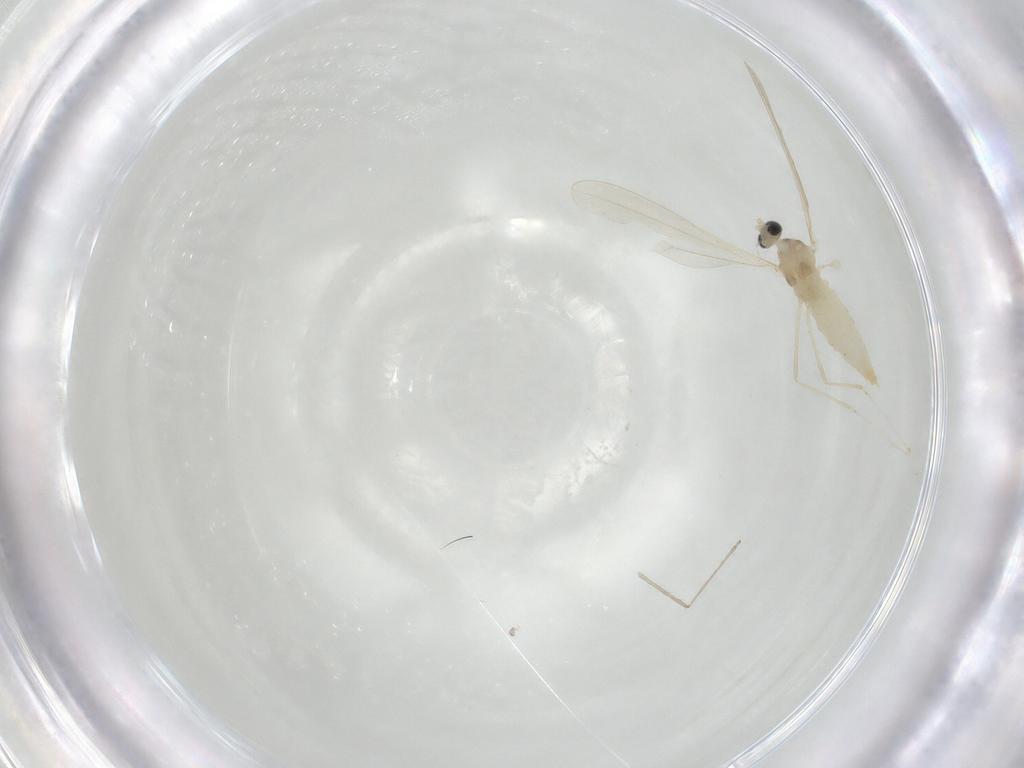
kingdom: Animalia
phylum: Arthropoda
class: Insecta
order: Diptera
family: Cecidomyiidae
